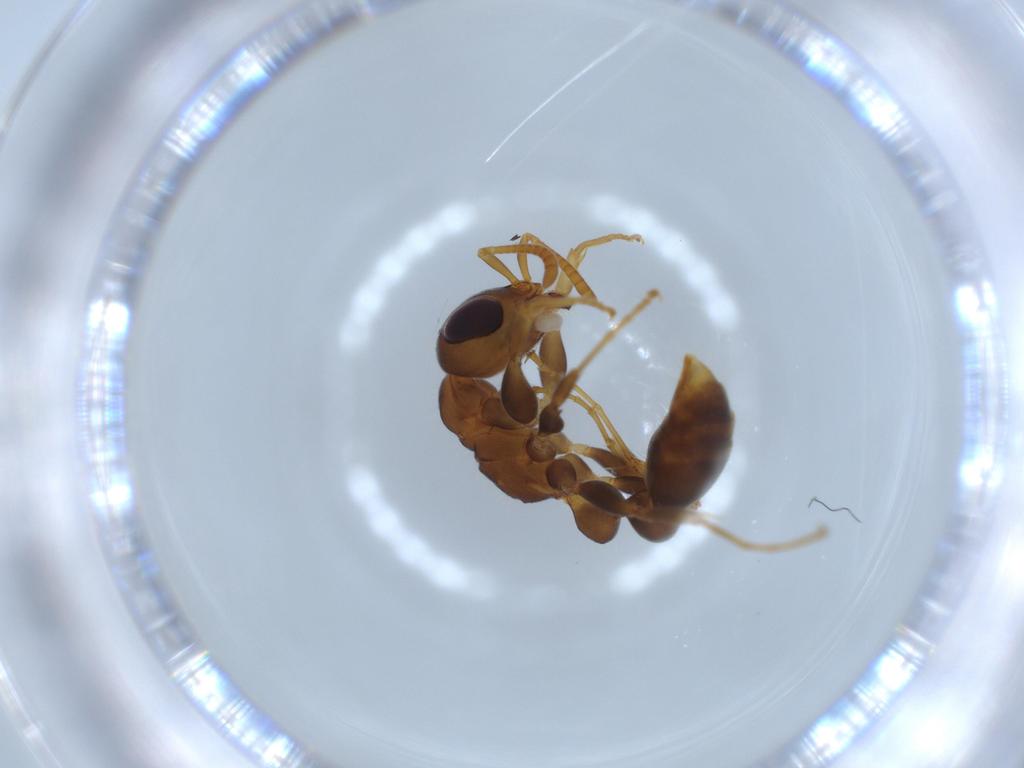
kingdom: Animalia
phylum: Arthropoda
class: Insecta
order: Hymenoptera
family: Formicidae
